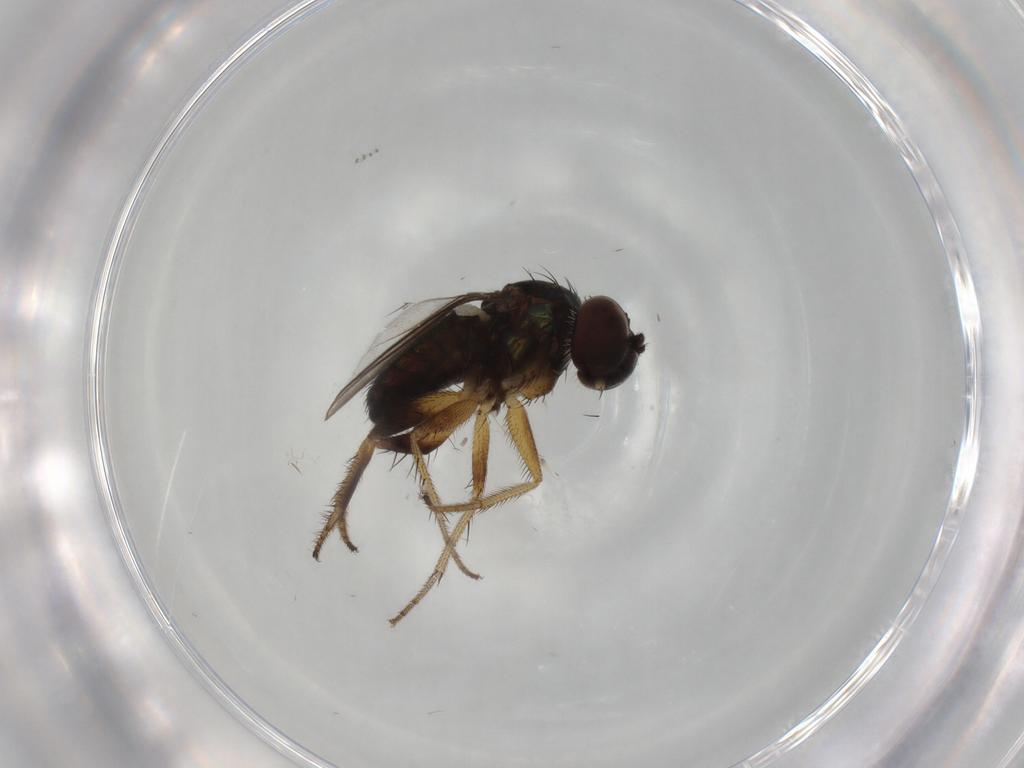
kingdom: Animalia
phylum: Arthropoda
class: Insecta
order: Diptera
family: Dolichopodidae
